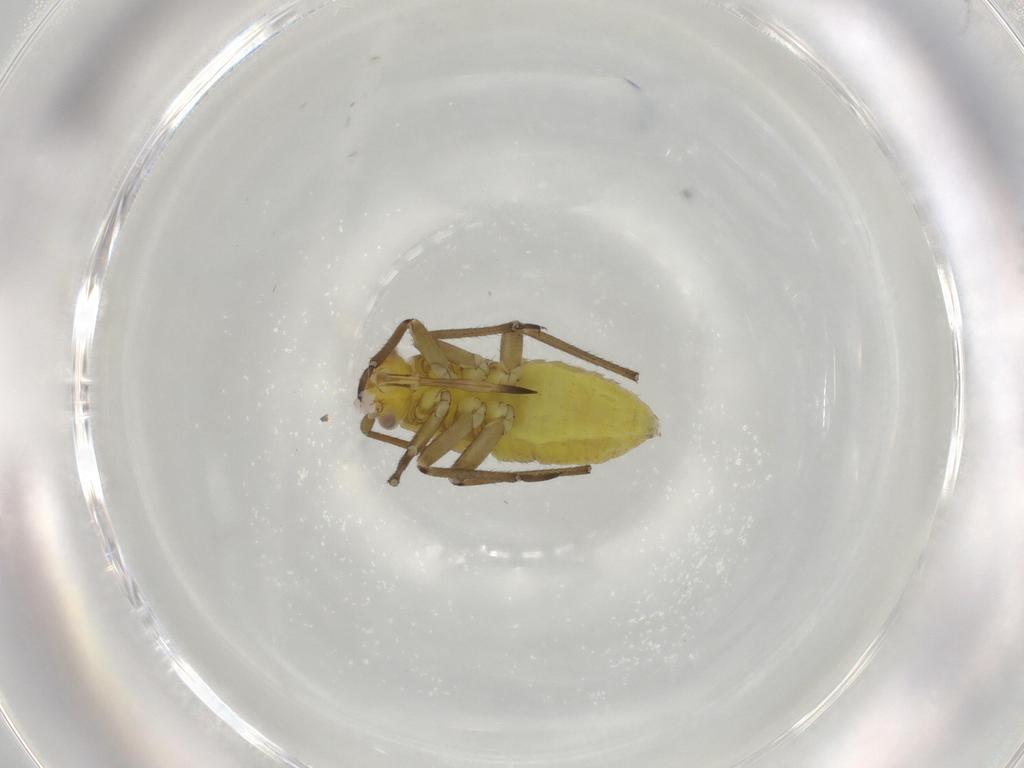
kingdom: Animalia
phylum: Arthropoda
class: Insecta
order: Hemiptera
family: Miridae
